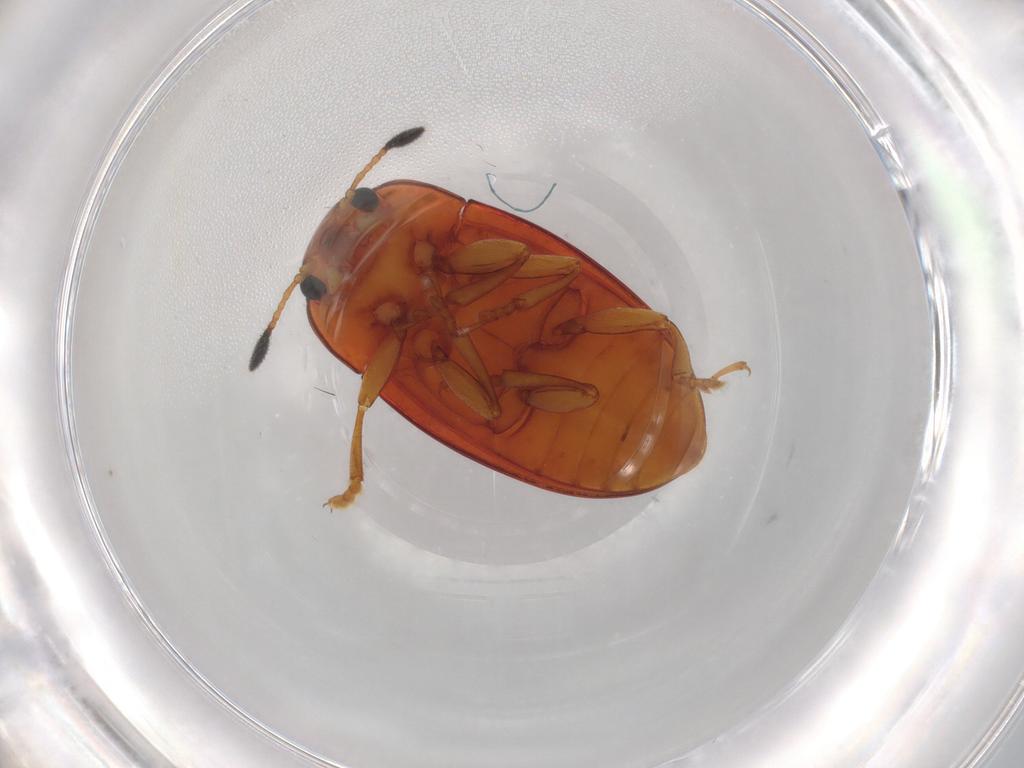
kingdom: Animalia
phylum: Arthropoda
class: Insecta
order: Coleoptera
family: Erotylidae
